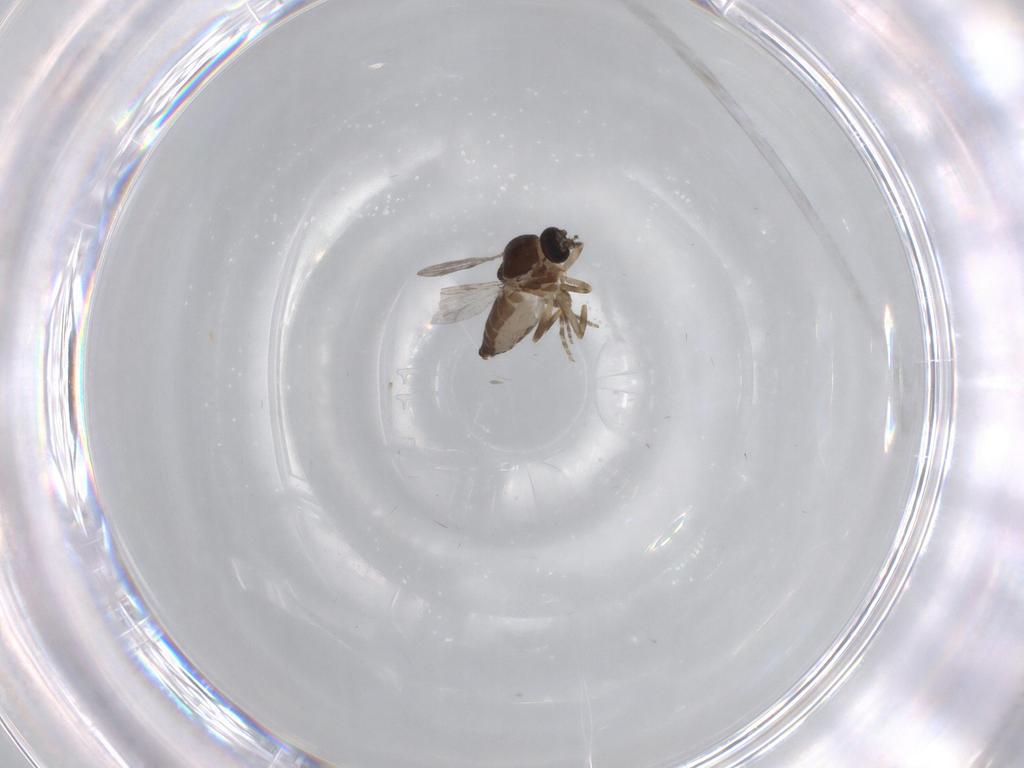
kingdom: Animalia
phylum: Arthropoda
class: Insecta
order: Diptera
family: Ceratopogonidae
